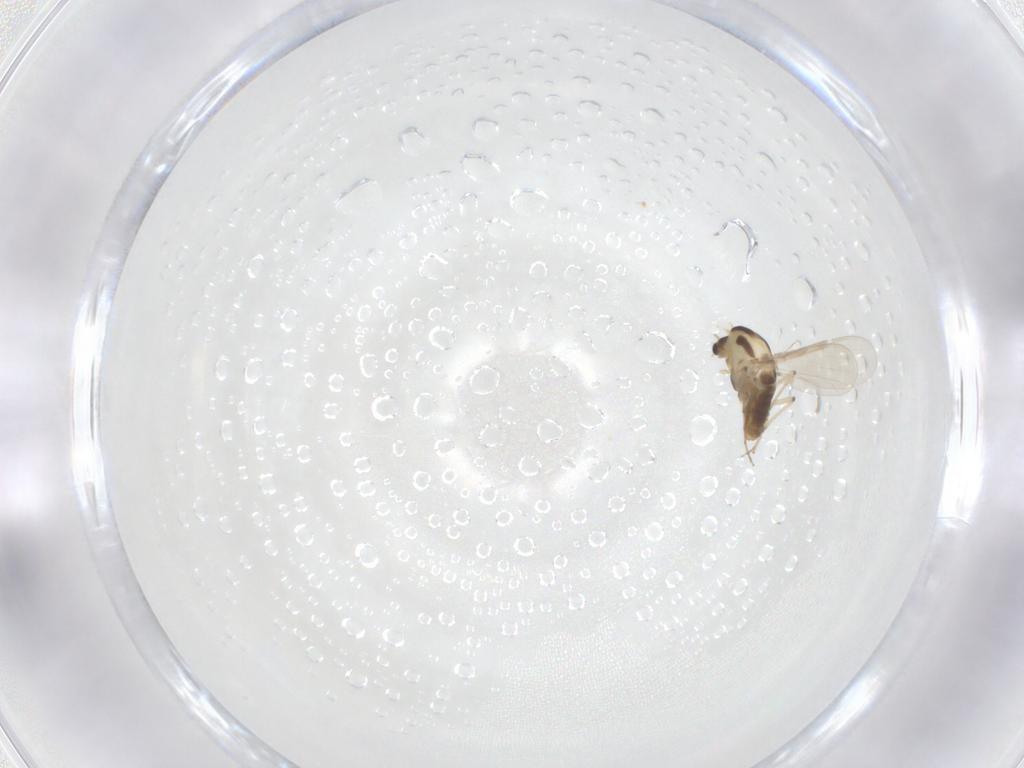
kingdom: Animalia
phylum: Arthropoda
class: Insecta
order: Diptera
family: Chironomidae
